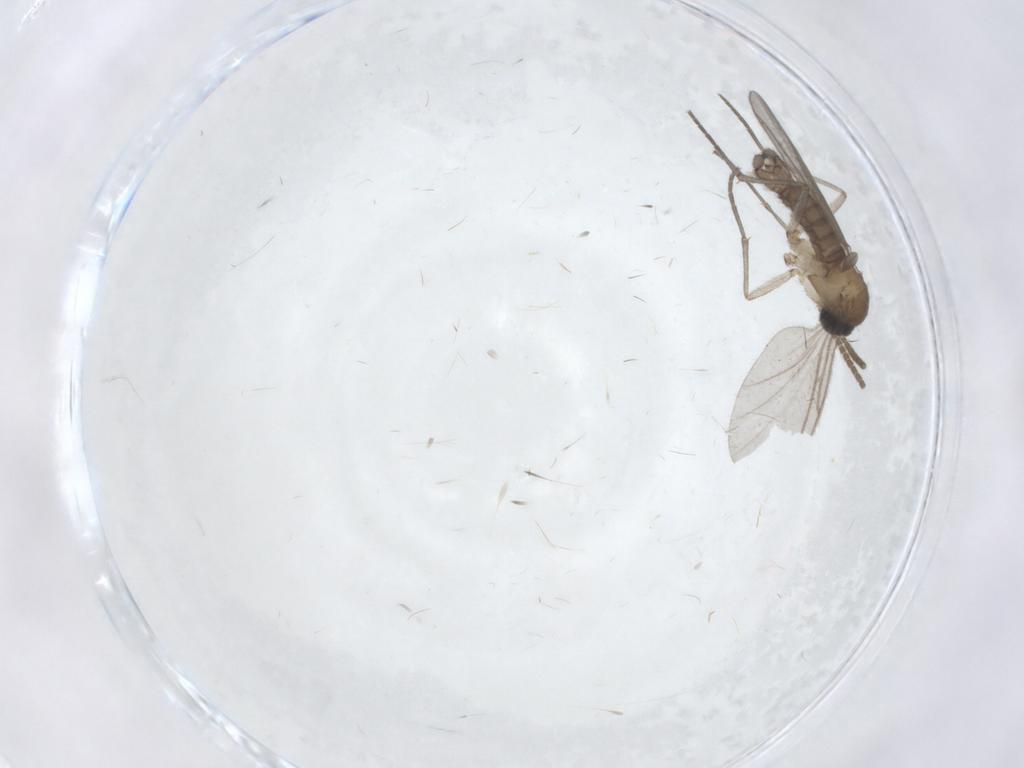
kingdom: Animalia
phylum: Arthropoda
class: Insecta
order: Diptera
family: Cecidomyiidae
